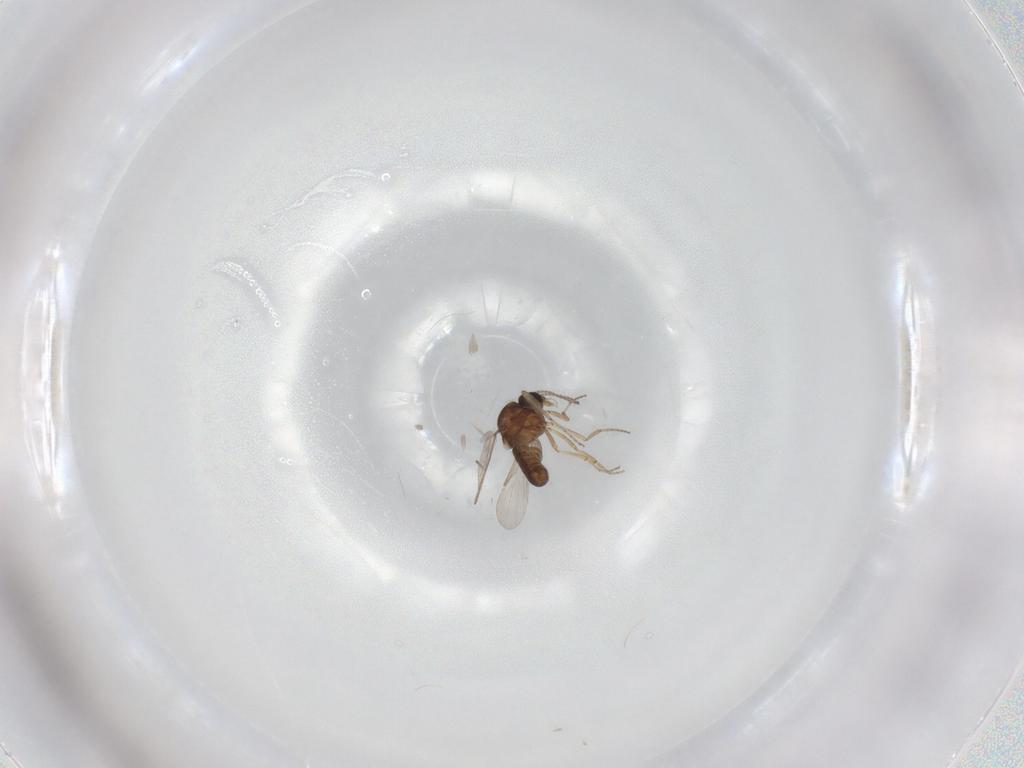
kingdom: Animalia
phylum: Arthropoda
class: Insecta
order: Diptera
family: Ceratopogonidae
